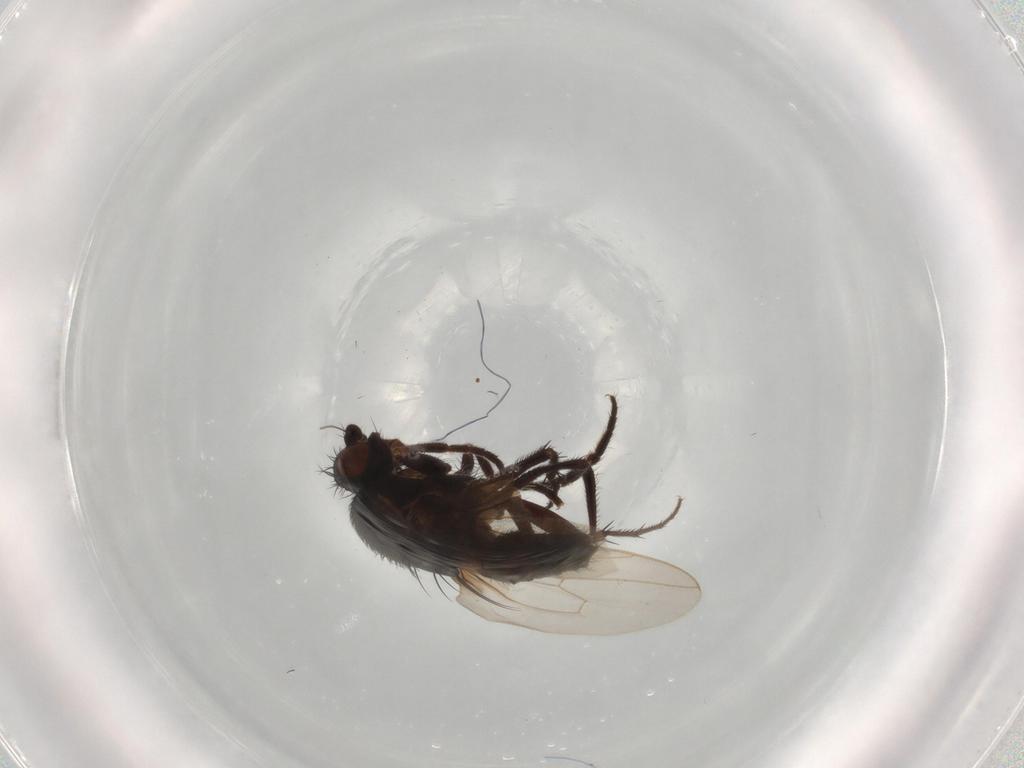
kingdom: Animalia
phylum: Arthropoda
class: Insecta
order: Diptera
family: Sphaeroceridae
